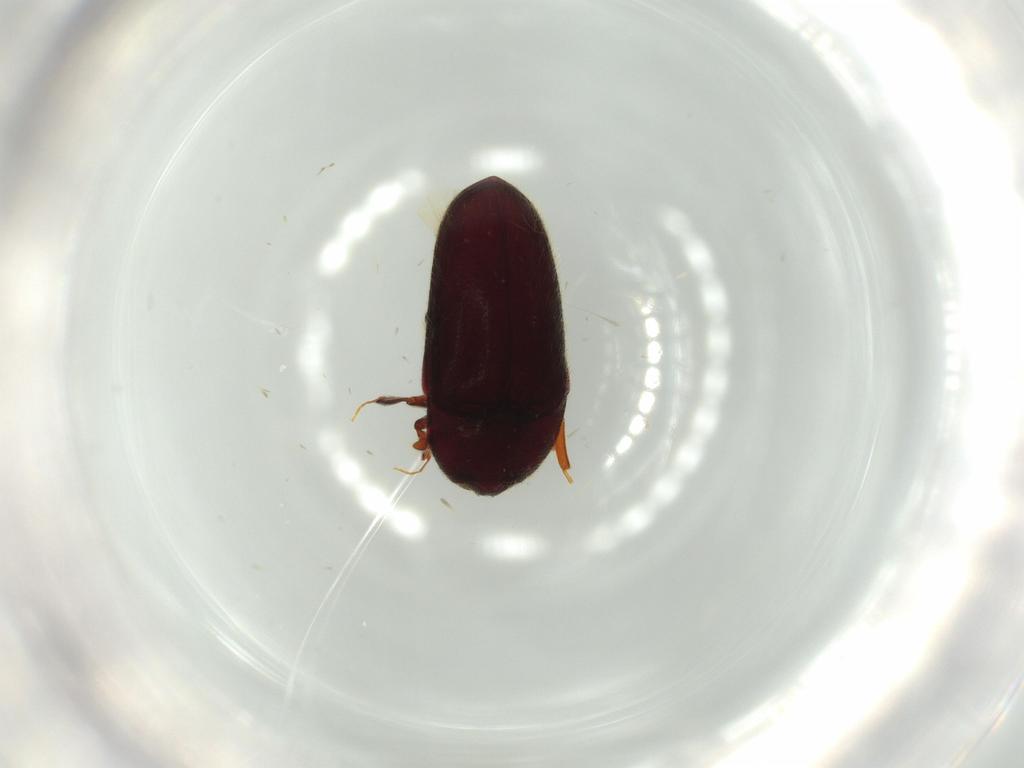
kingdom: Animalia
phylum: Arthropoda
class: Insecta
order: Coleoptera
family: Throscidae
